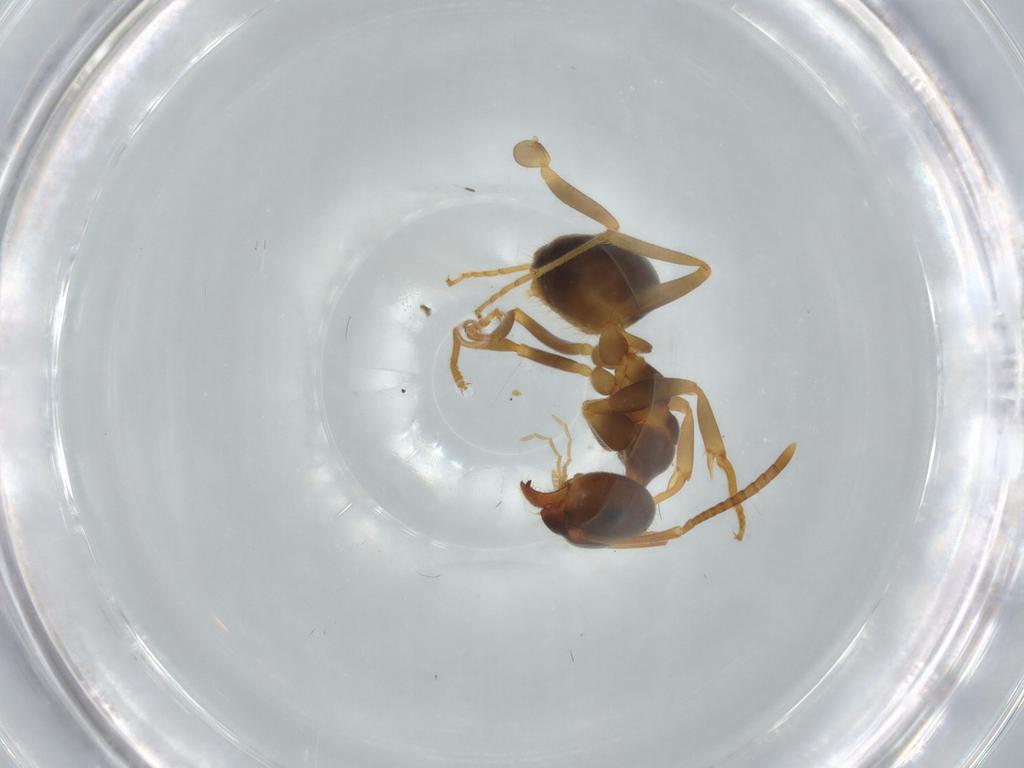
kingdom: Animalia
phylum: Arthropoda
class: Insecta
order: Hymenoptera
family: Formicidae
